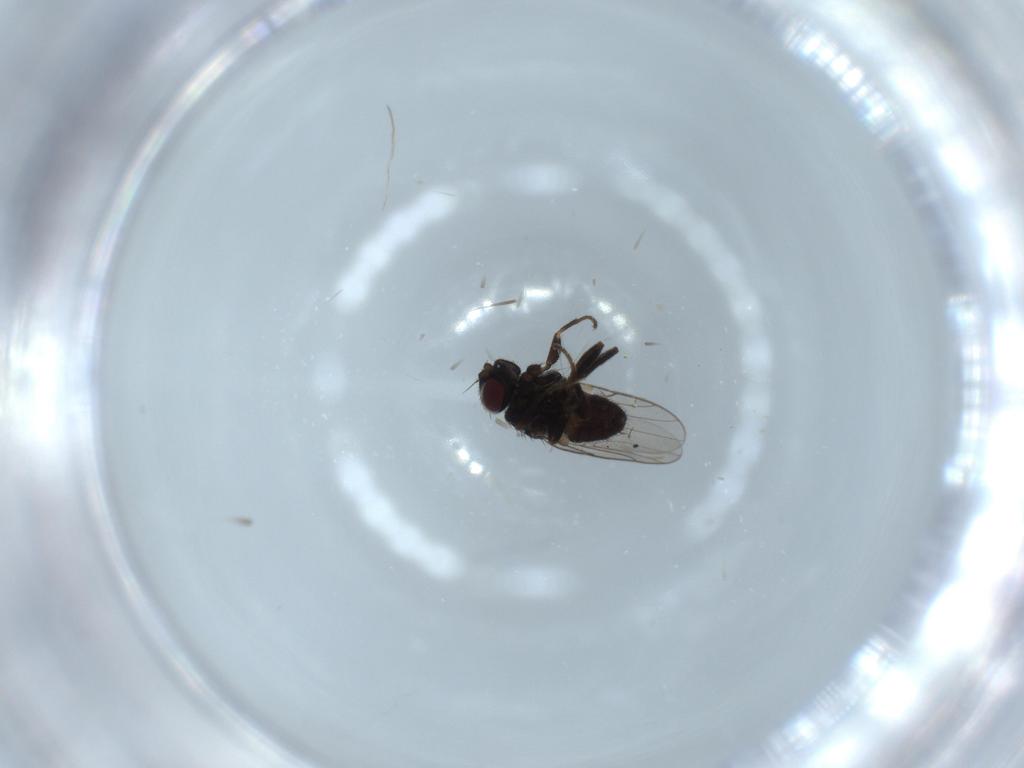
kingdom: Animalia
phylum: Arthropoda
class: Insecta
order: Diptera
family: Chloropidae
